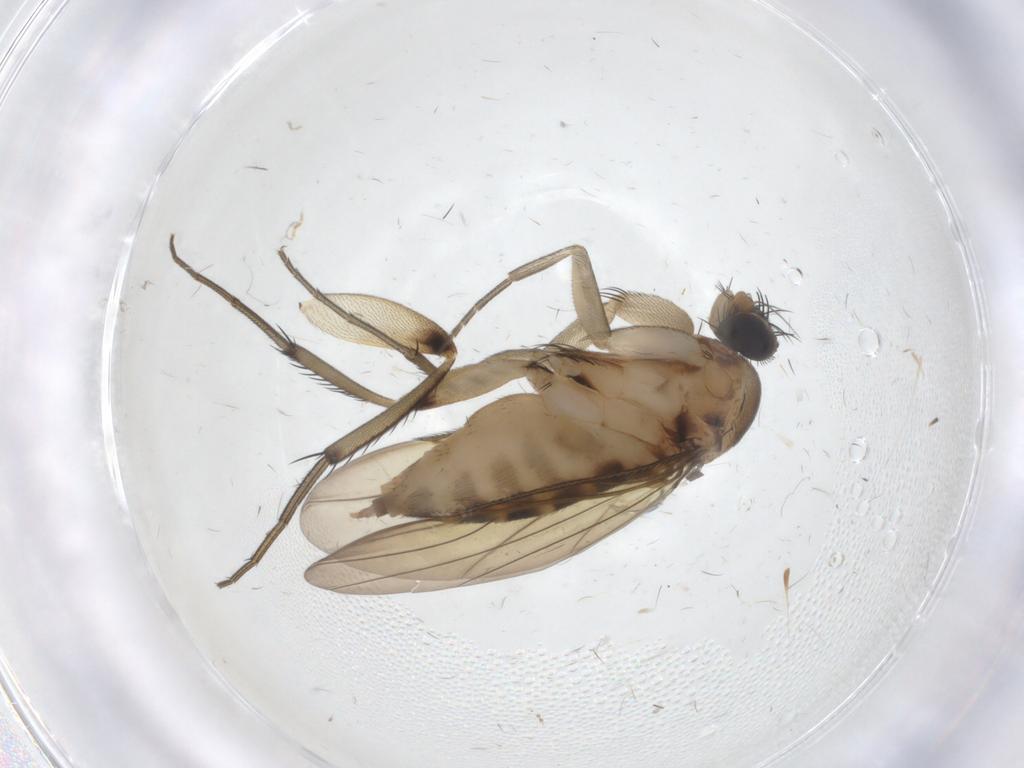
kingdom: Animalia
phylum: Arthropoda
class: Insecta
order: Diptera
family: Phoridae
